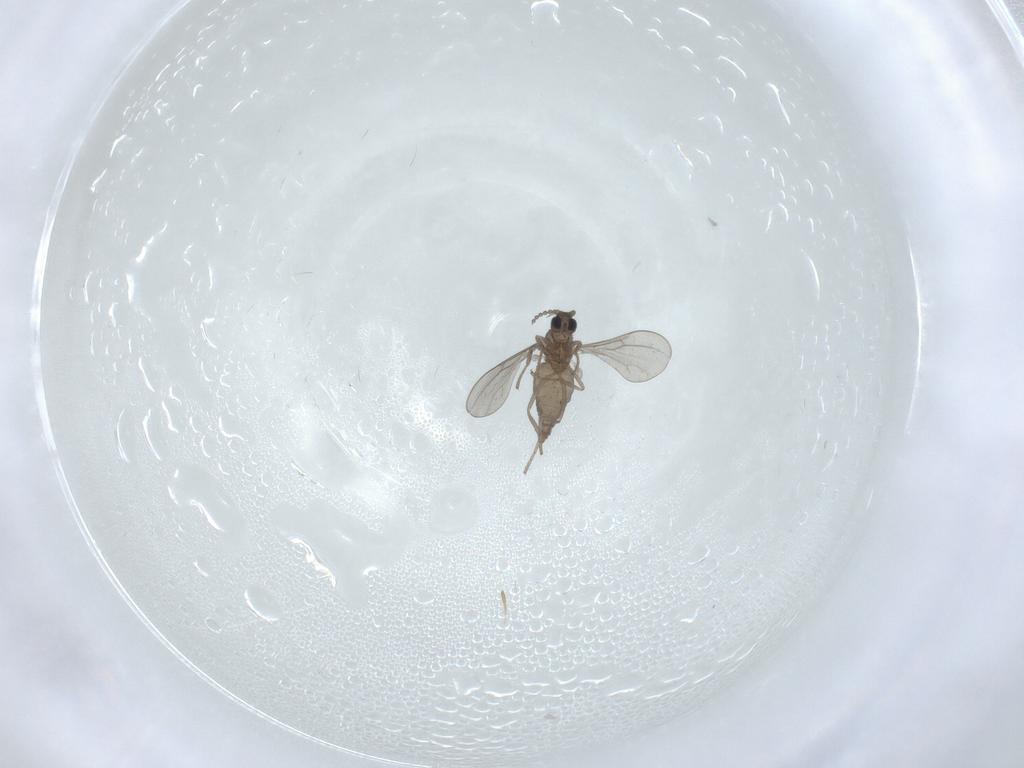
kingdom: Animalia
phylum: Arthropoda
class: Insecta
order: Diptera
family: Cecidomyiidae
